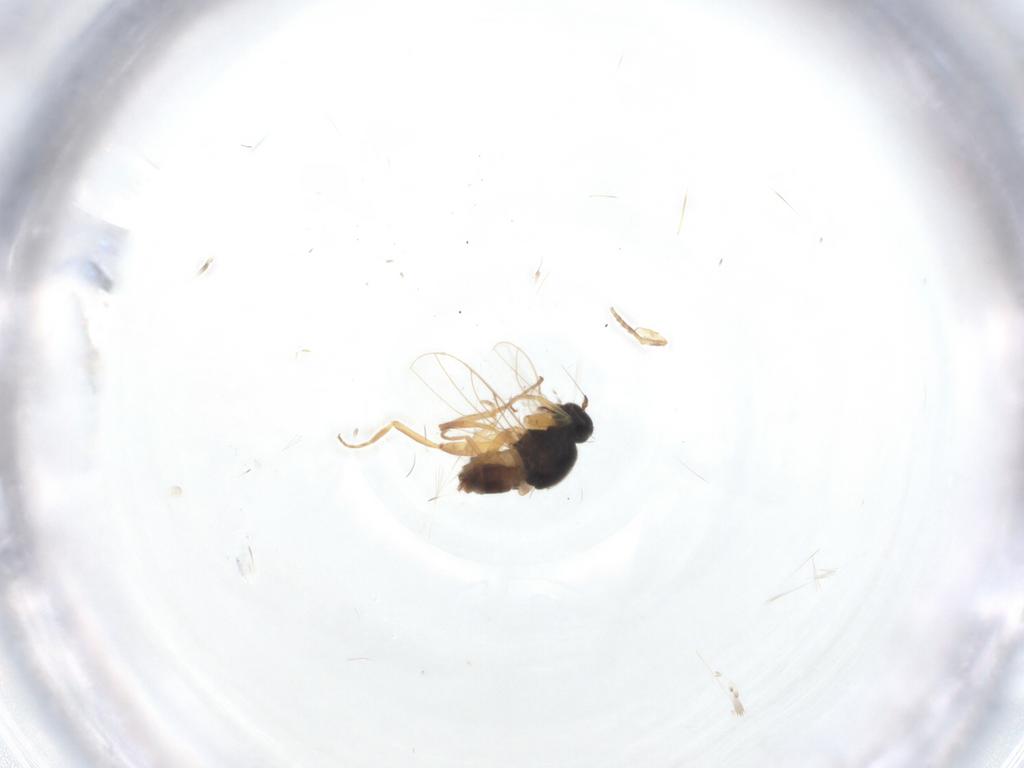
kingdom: Animalia
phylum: Arthropoda
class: Insecta
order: Diptera
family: Hybotidae
